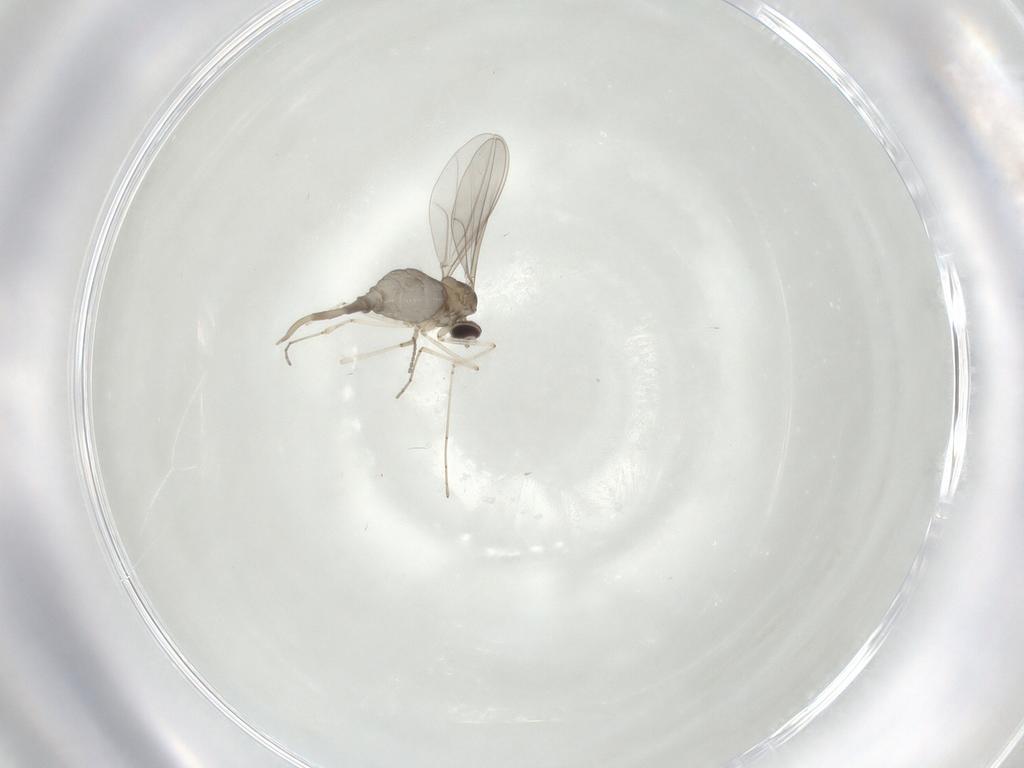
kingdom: Animalia
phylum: Arthropoda
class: Insecta
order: Diptera
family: Cecidomyiidae
